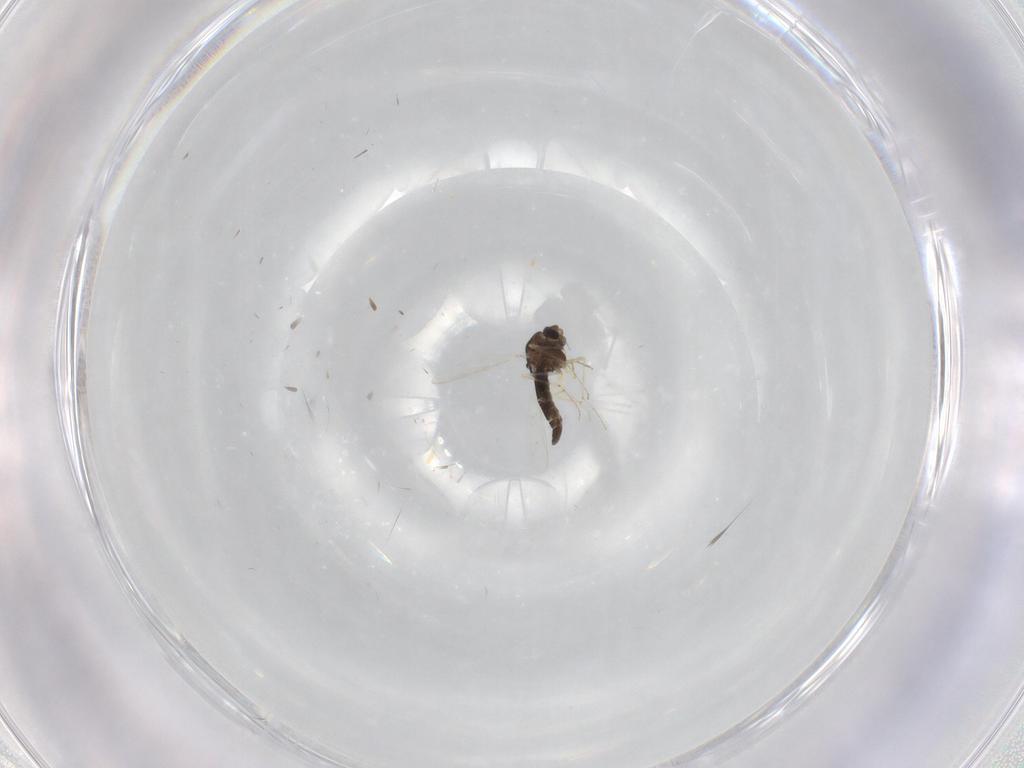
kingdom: Animalia
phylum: Arthropoda
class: Insecta
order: Diptera
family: Chironomidae
